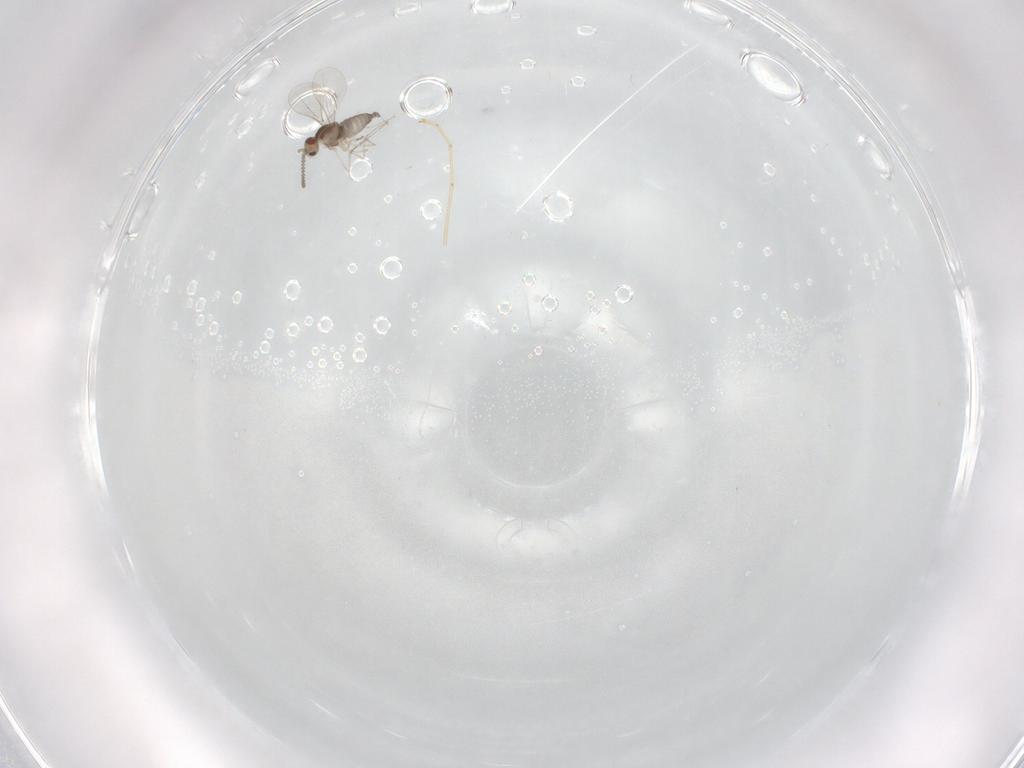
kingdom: Animalia
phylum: Arthropoda
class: Insecta
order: Diptera
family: Cecidomyiidae
